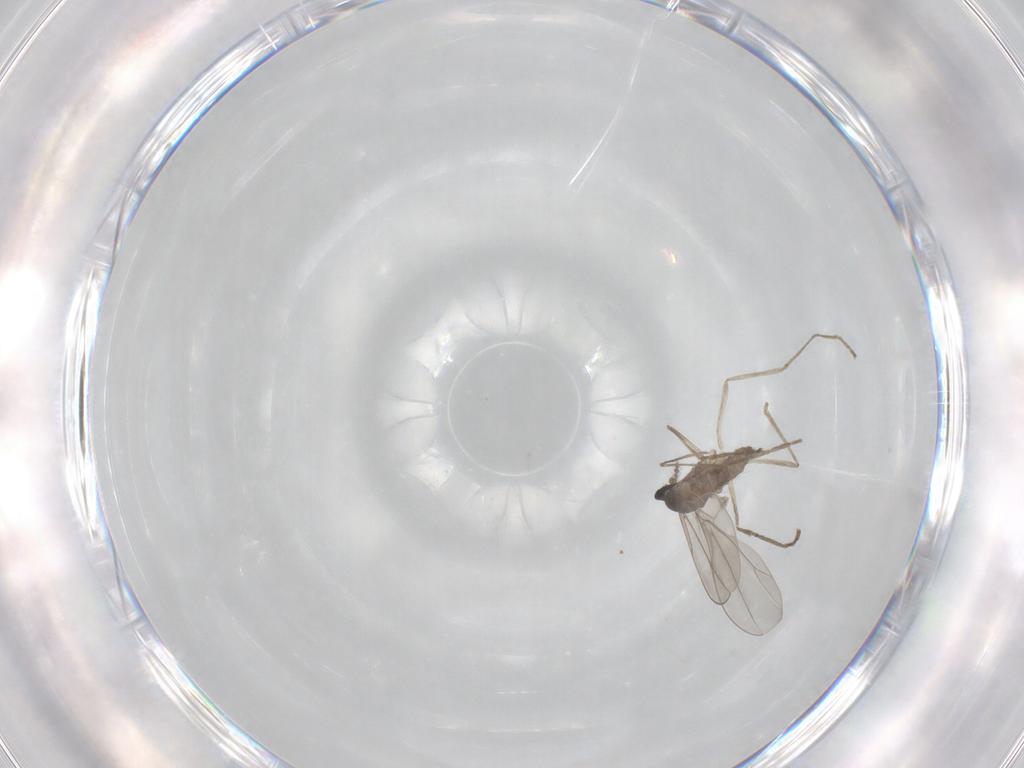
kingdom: Animalia
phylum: Arthropoda
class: Insecta
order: Diptera
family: Cecidomyiidae
